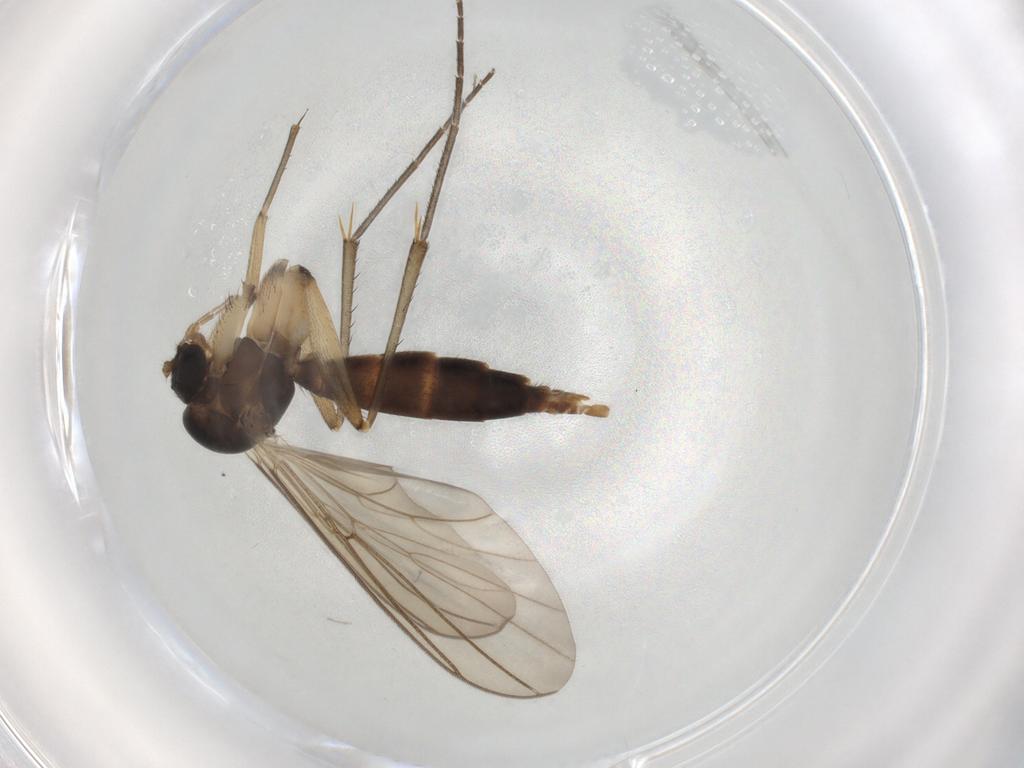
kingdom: Animalia
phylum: Arthropoda
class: Insecta
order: Diptera
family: Mycetophilidae
